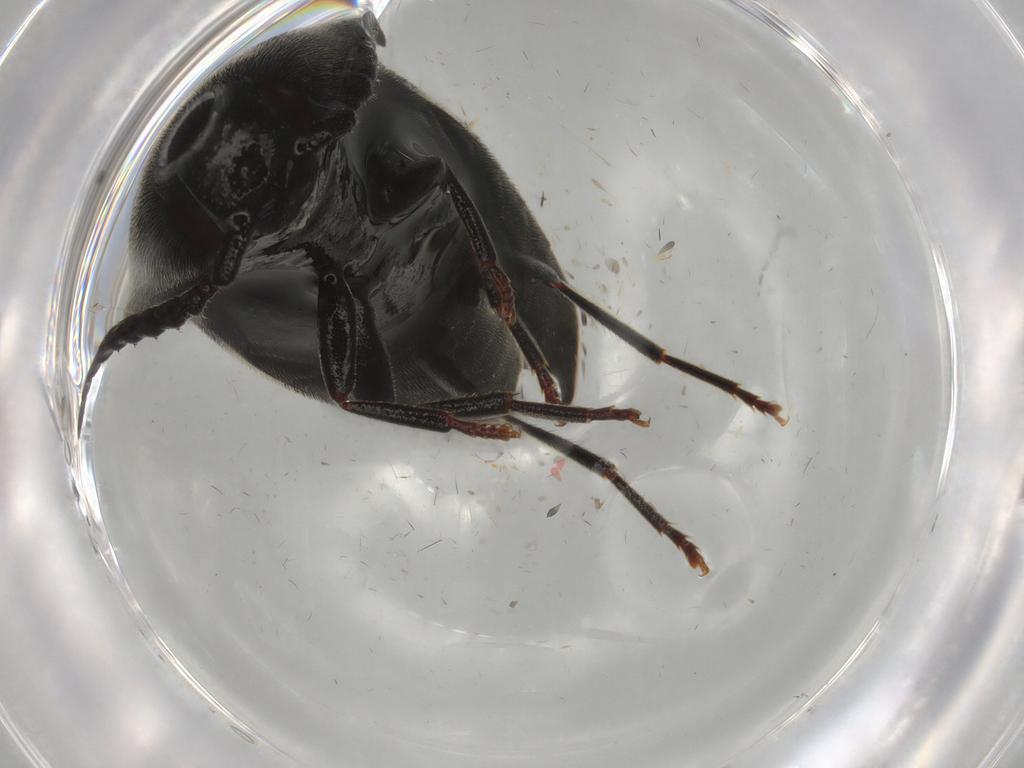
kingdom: Animalia
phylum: Arthropoda
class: Insecta
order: Coleoptera
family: Eucnemidae
